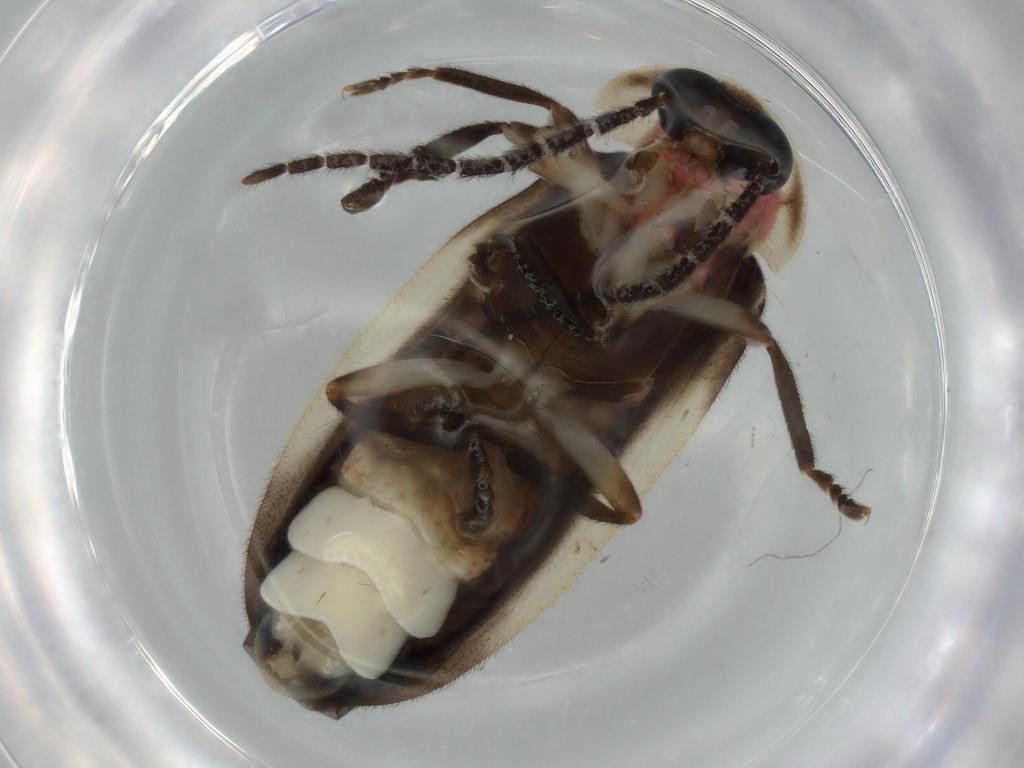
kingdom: Animalia
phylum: Arthropoda
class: Insecta
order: Coleoptera
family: Lampyridae
